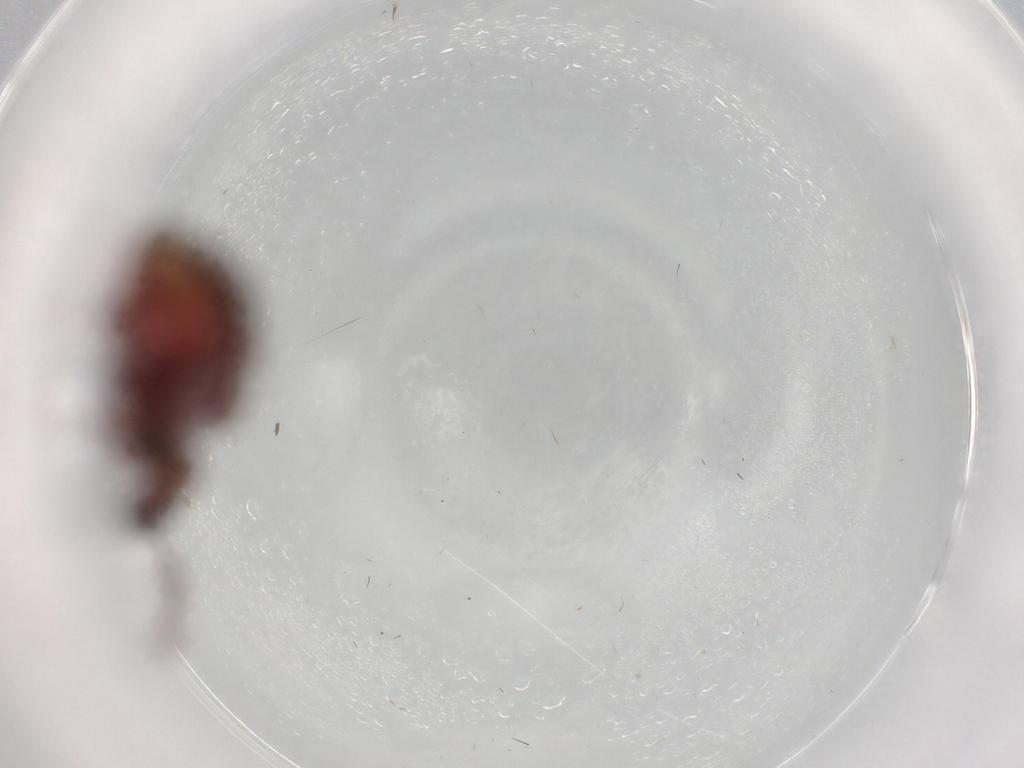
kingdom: Animalia
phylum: Arthropoda
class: Insecta
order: Coleoptera
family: Ptinidae
